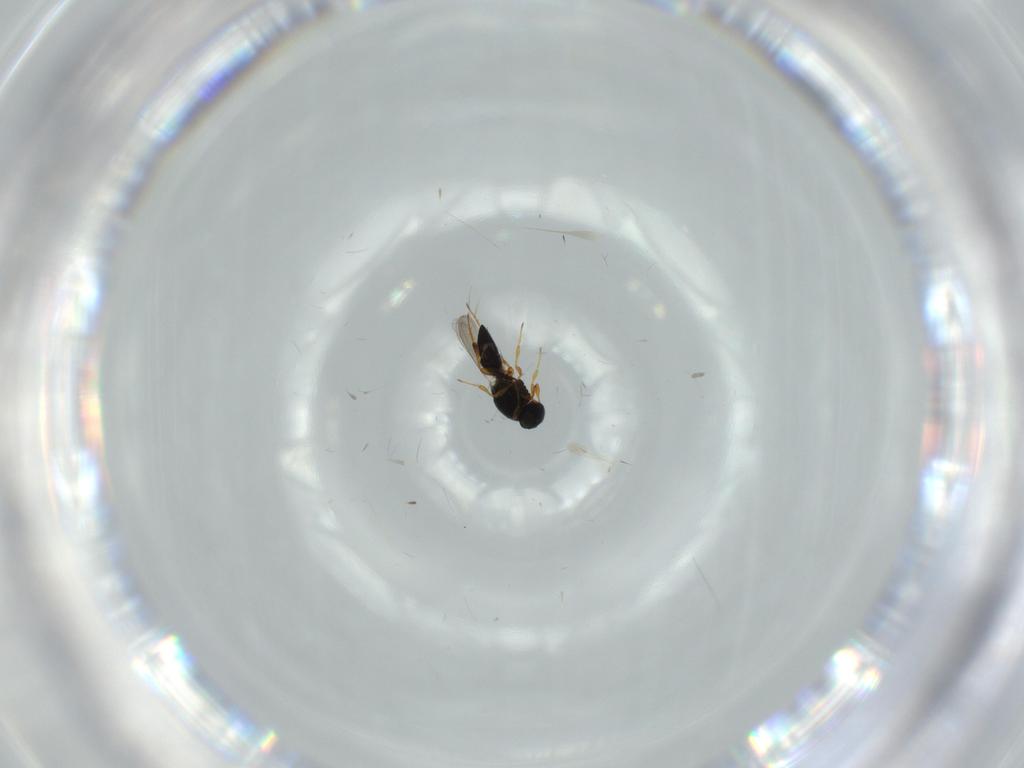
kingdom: Animalia
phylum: Arthropoda
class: Insecta
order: Hymenoptera
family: Platygastridae
